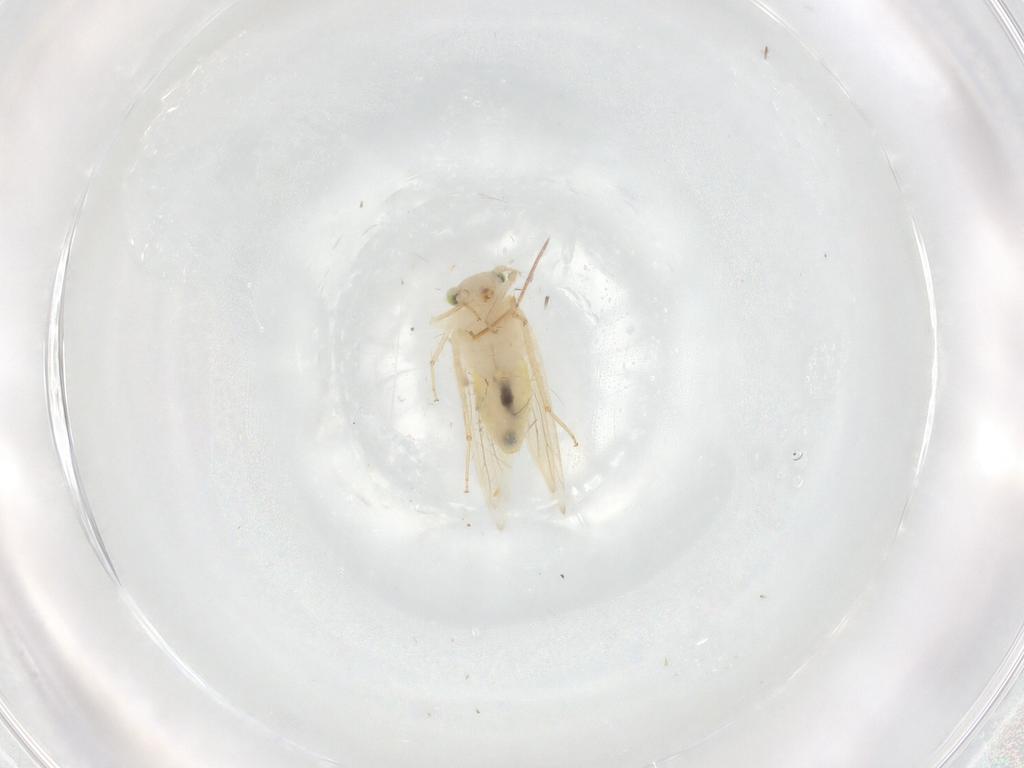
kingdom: Animalia
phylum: Arthropoda
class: Insecta
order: Psocodea
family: Lepidopsocidae
